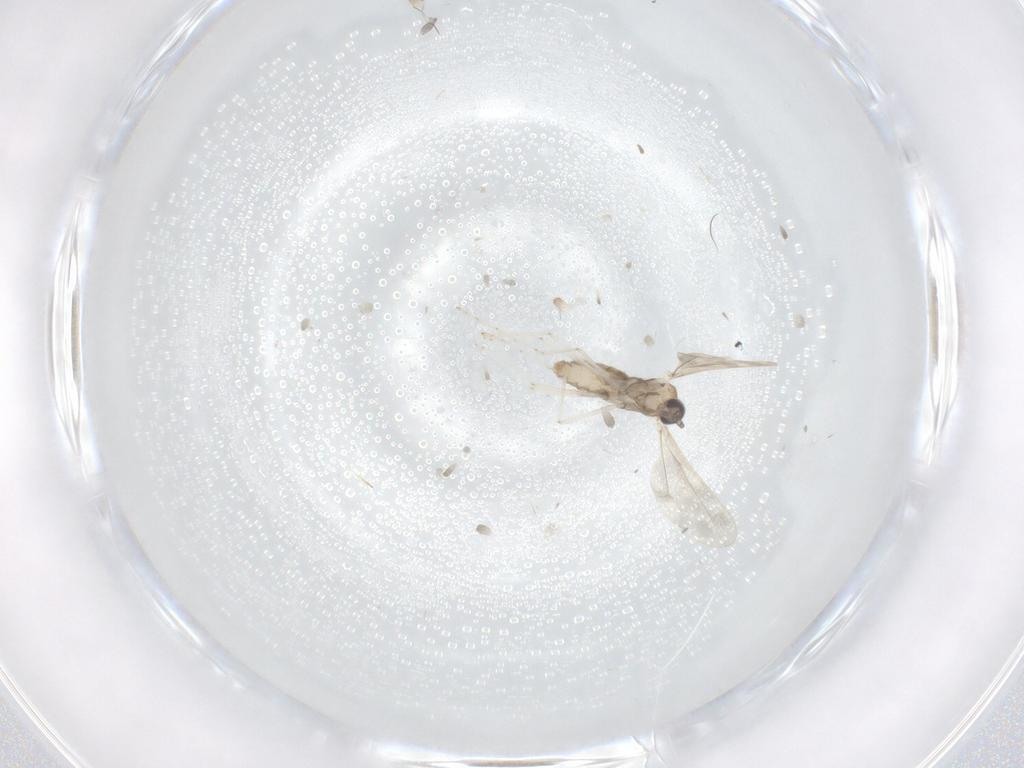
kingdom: Animalia
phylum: Arthropoda
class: Insecta
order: Diptera
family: Cecidomyiidae
